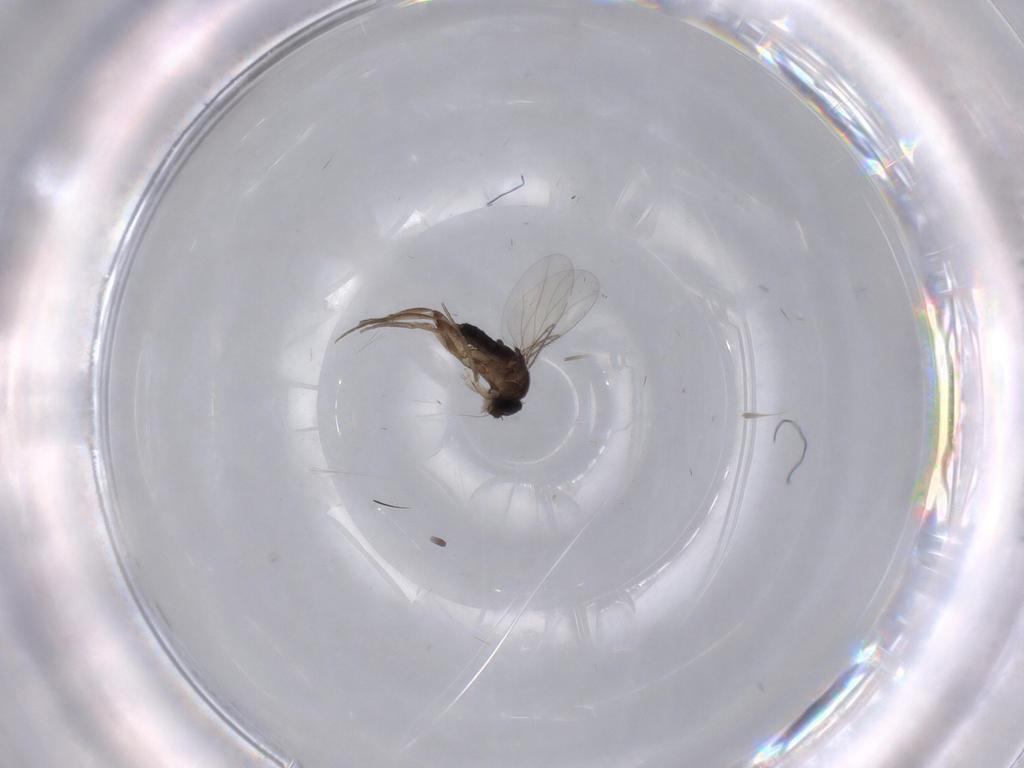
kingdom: Animalia
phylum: Arthropoda
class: Insecta
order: Diptera
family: Phoridae
